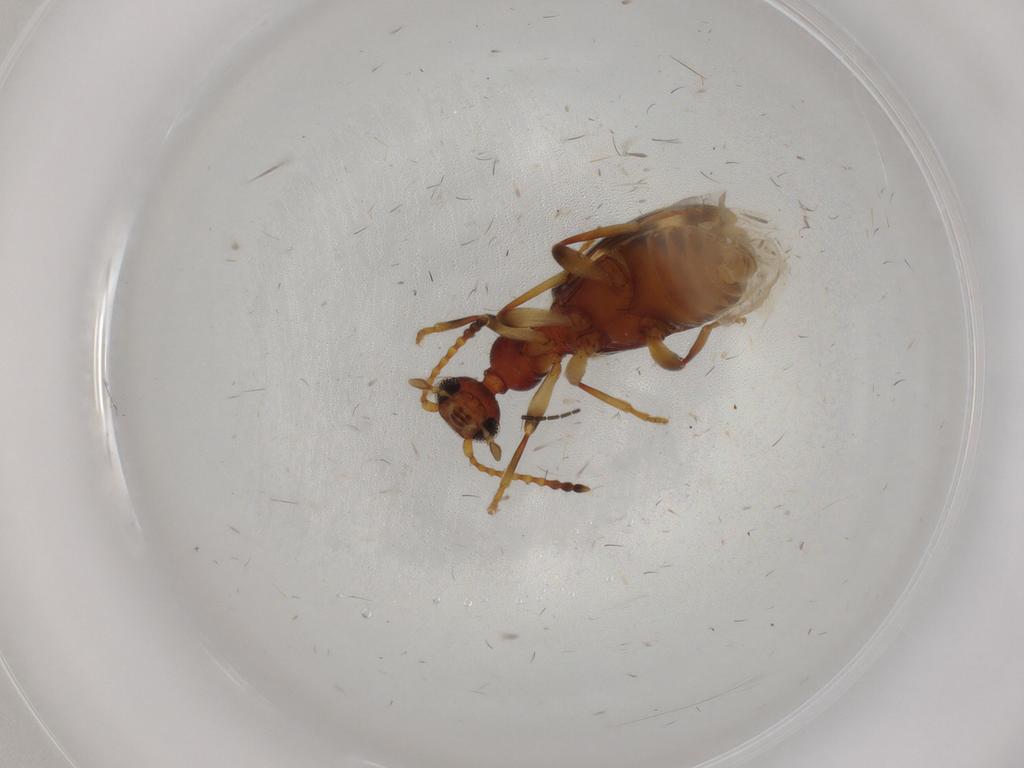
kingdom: Animalia
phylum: Arthropoda
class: Insecta
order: Coleoptera
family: Anthicidae
